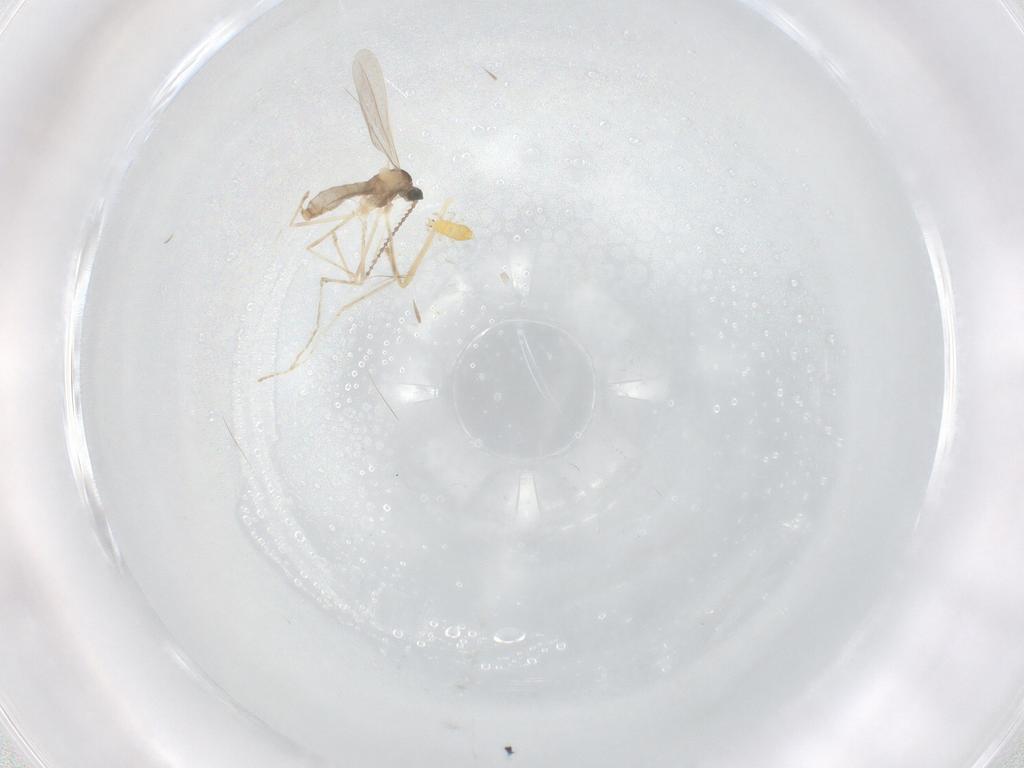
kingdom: Animalia
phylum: Arthropoda
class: Insecta
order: Diptera
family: Cecidomyiidae
